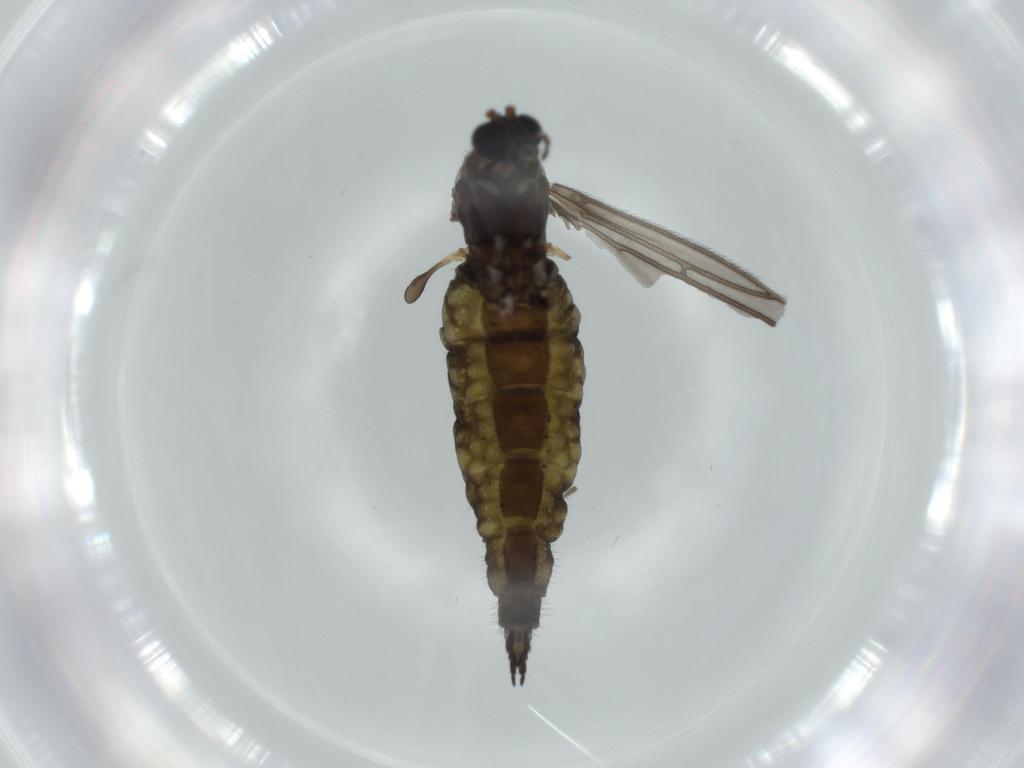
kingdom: Animalia
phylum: Arthropoda
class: Insecta
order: Diptera
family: Sciaridae
